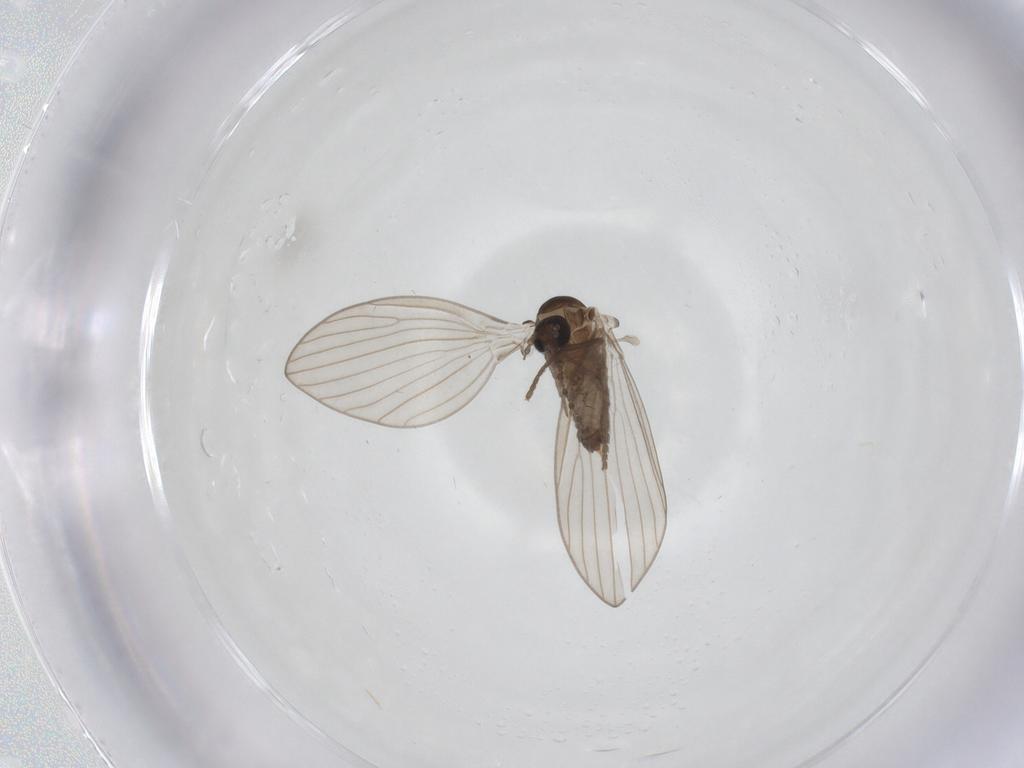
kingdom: Animalia
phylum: Arthropoda
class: Insecta
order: Diptera
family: Psychodidae
